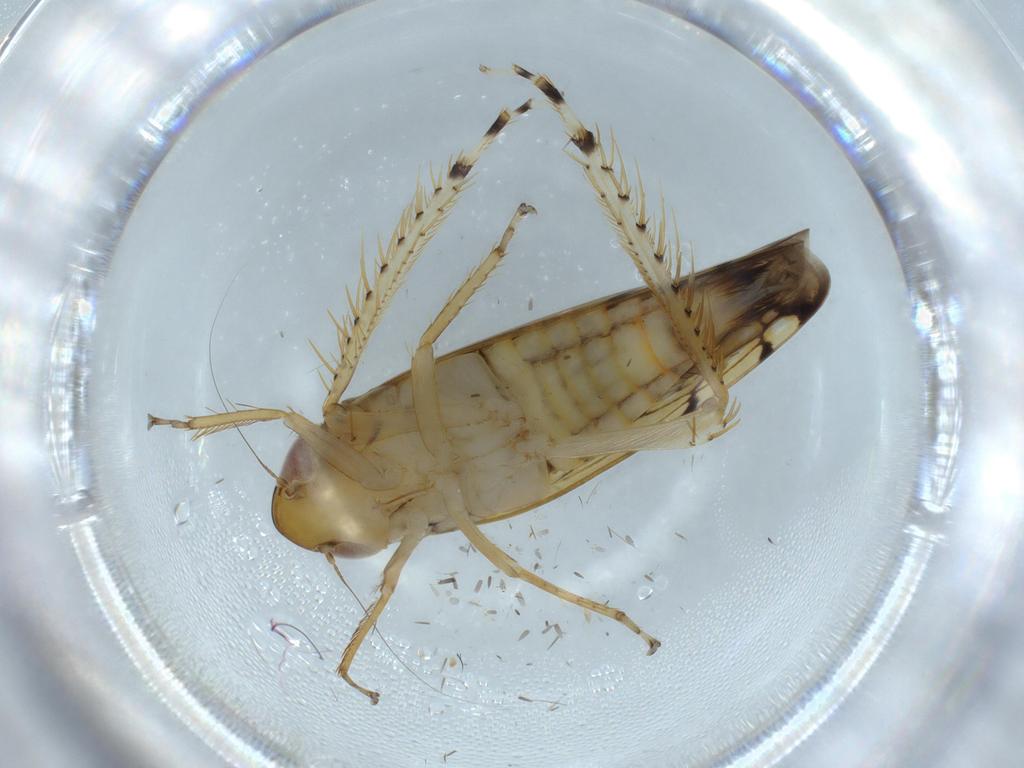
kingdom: Animalia
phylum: Arthropoda
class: Insecta
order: Hemiptera
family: Cicadellidae
